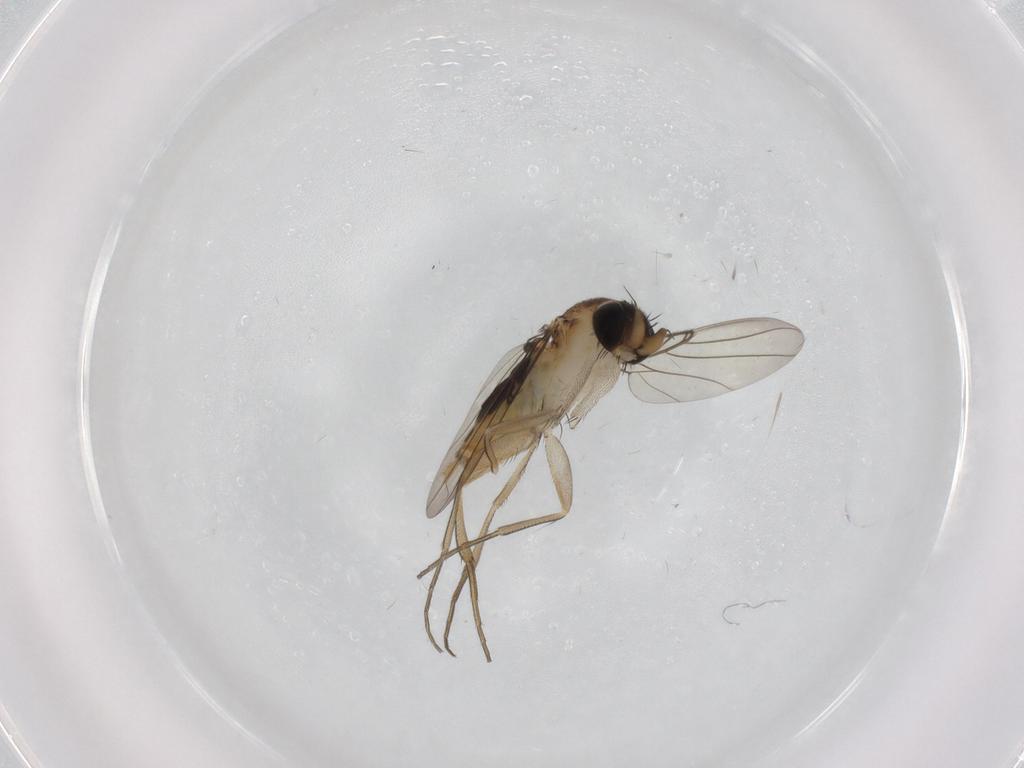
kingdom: Animalia
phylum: Arthropoda
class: Insecta
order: Diptera
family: Phoridae
